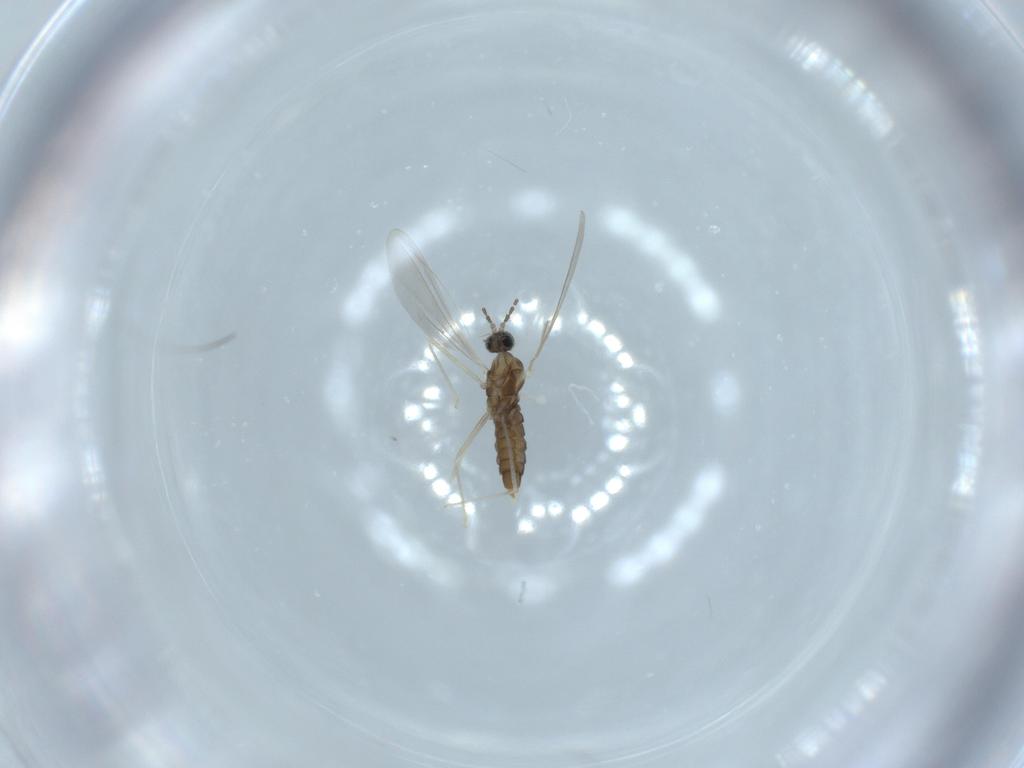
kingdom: Animalia
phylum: Arthropoda
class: Insecta
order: Diptera
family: Cecidomyiidae
